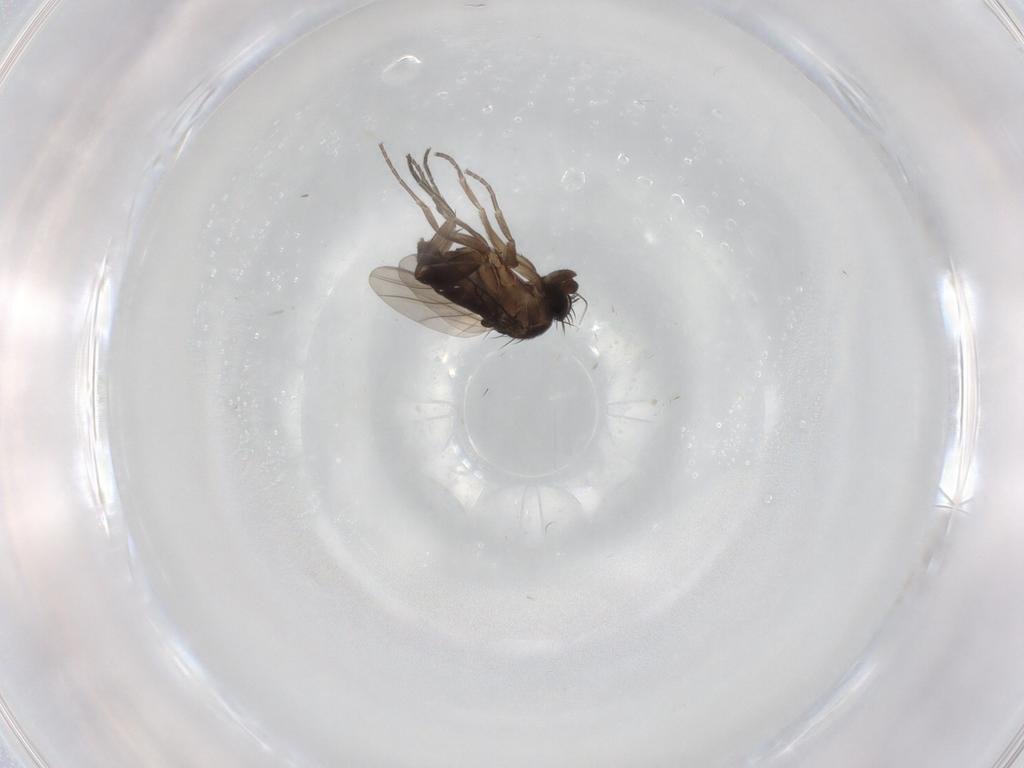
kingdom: Animalia
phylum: Arthropoda
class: Insecta
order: Diptera
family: Phoridae
